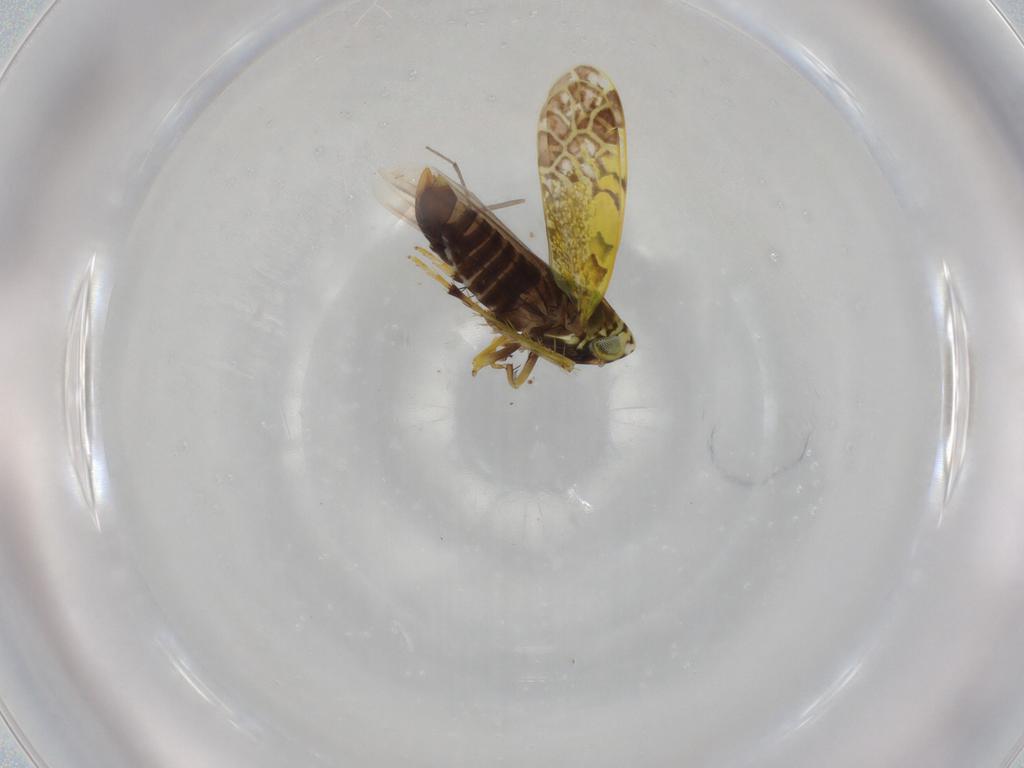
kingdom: Animalia
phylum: Arthropoda
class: Insecta
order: Hemiptera
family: Cicadellidae
